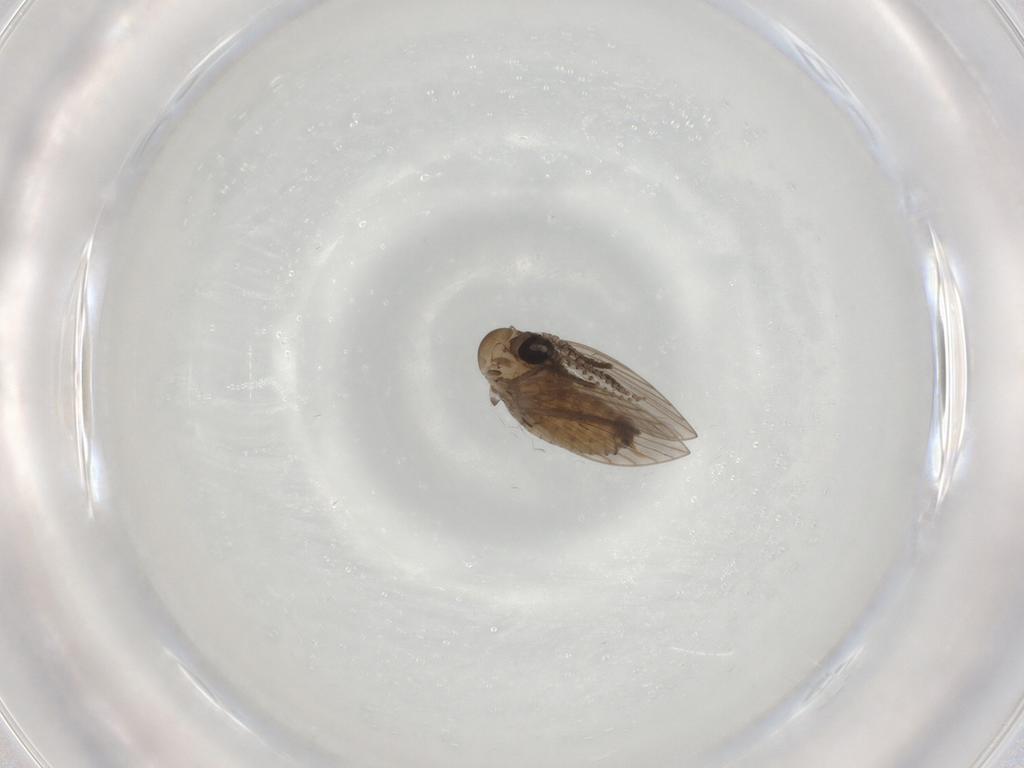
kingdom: Animalia
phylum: Arthropoda
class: Insecta
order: Diptera
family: Psychodidae
